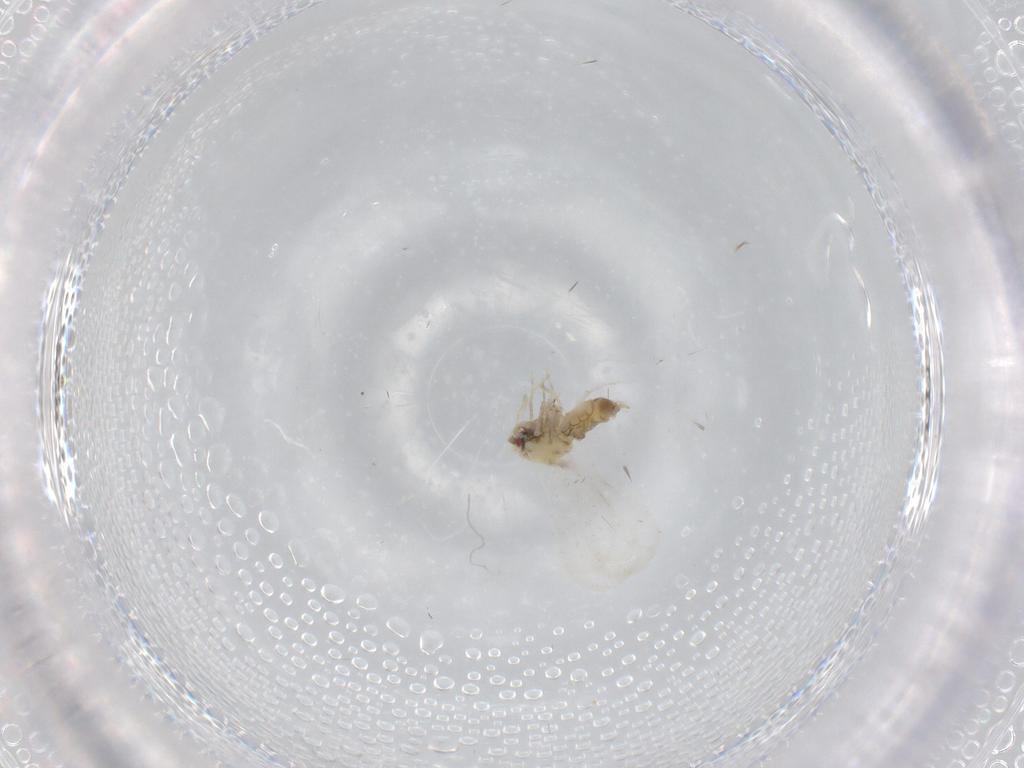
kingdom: Animalia
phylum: Arthropoda
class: Insecta
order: Hemiptera
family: Aleyrodidae
